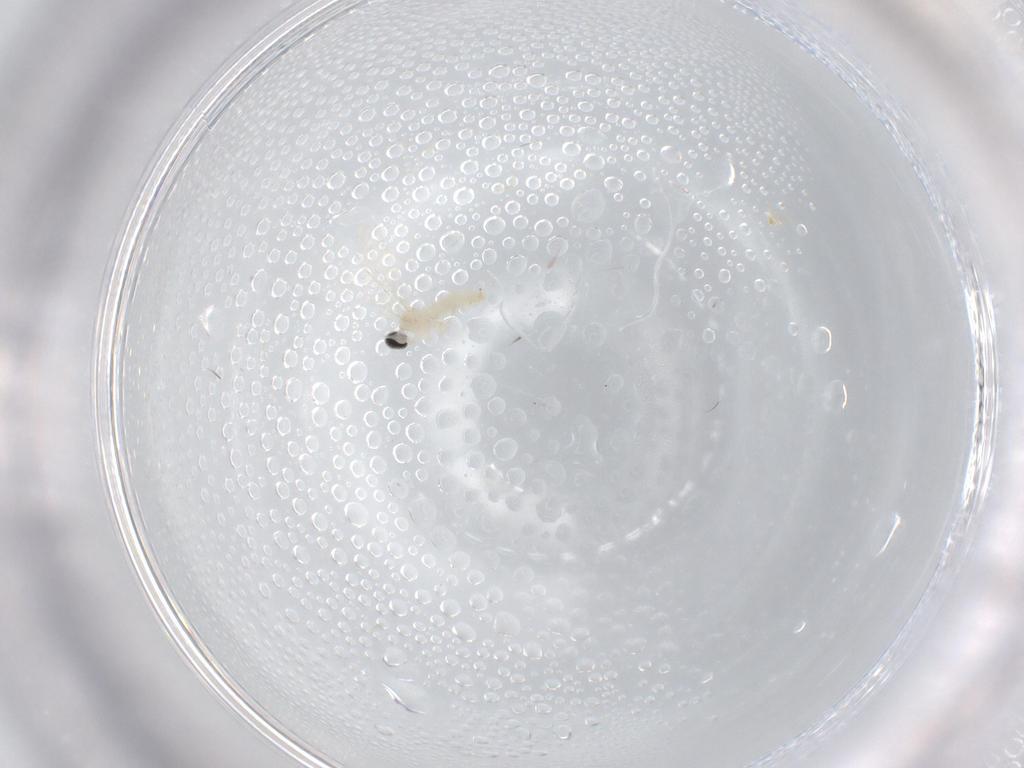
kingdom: Animalia
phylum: Arthropoda
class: Insecta
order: Diptera
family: Cecidomyiidae
